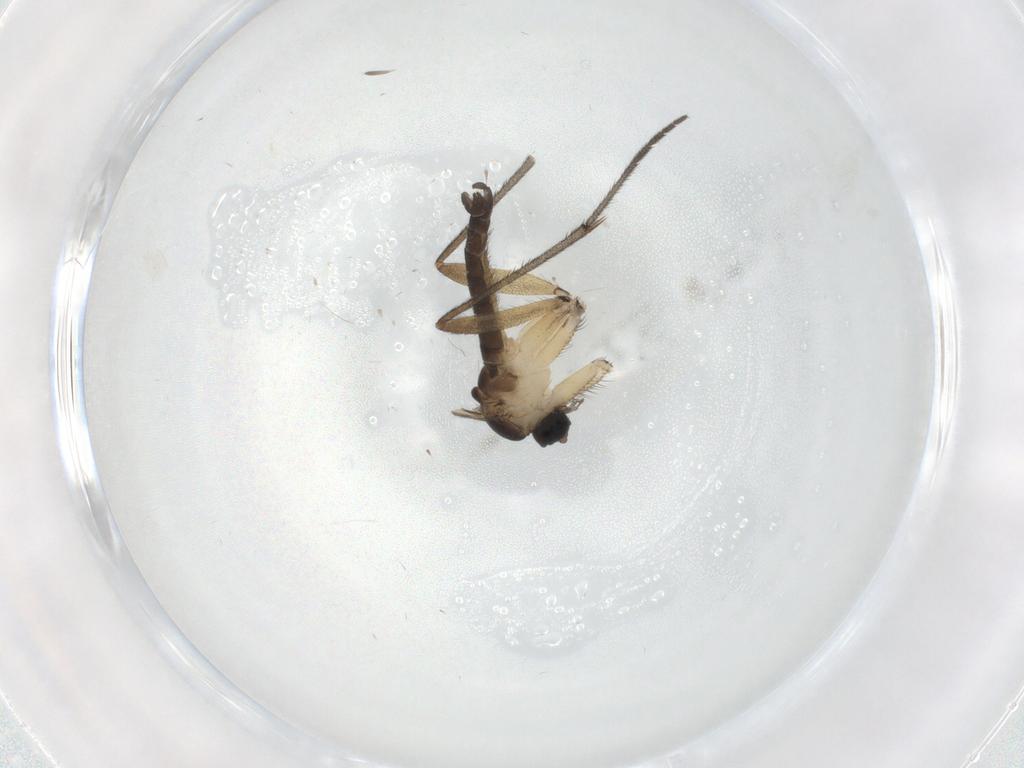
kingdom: Animalia
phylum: Arthropoda
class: Insecta
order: Diptera
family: Sciaridae
